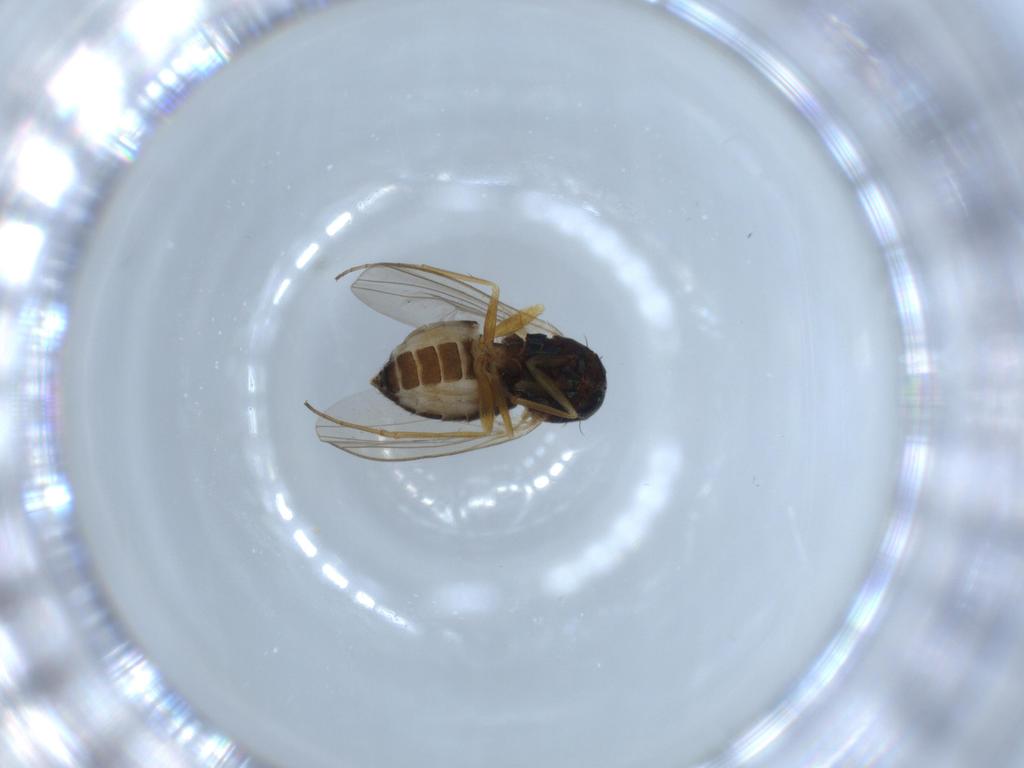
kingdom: Animalia
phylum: Arthropoda
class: Insecta
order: Diptera
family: Dolichopodidae
